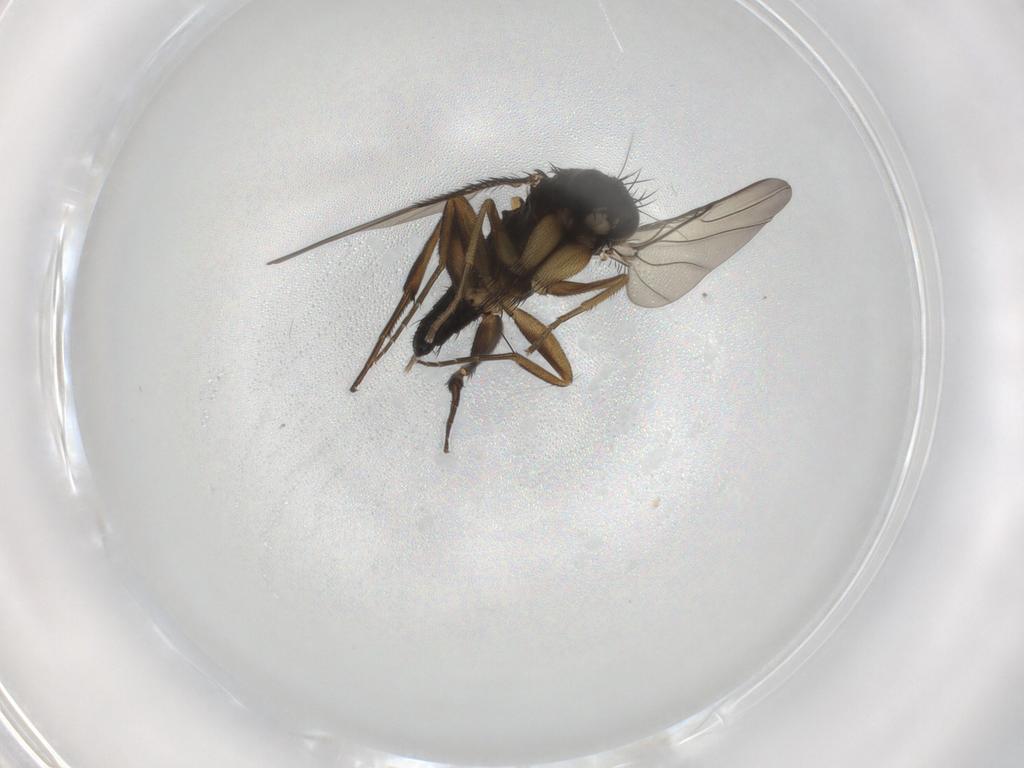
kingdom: Animalia
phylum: Arthropoda
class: Insecta
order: Diptera
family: Phoridae
